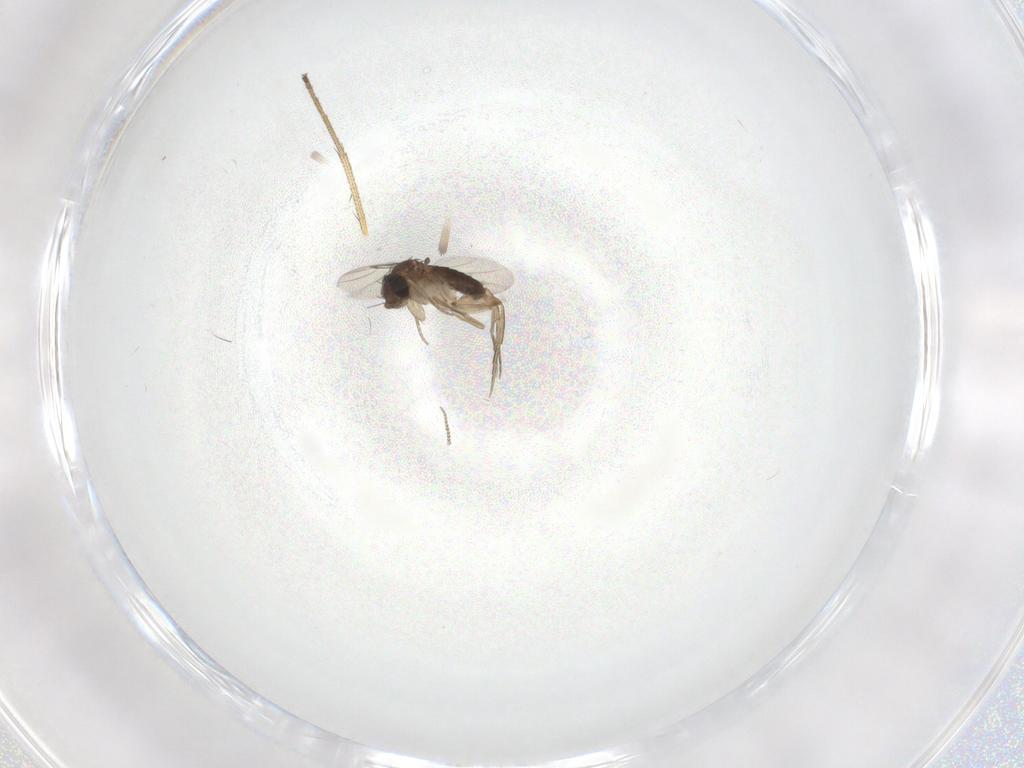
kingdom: Animalia
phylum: Arthropoda
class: Insecta
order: Diptera
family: Phoridae
